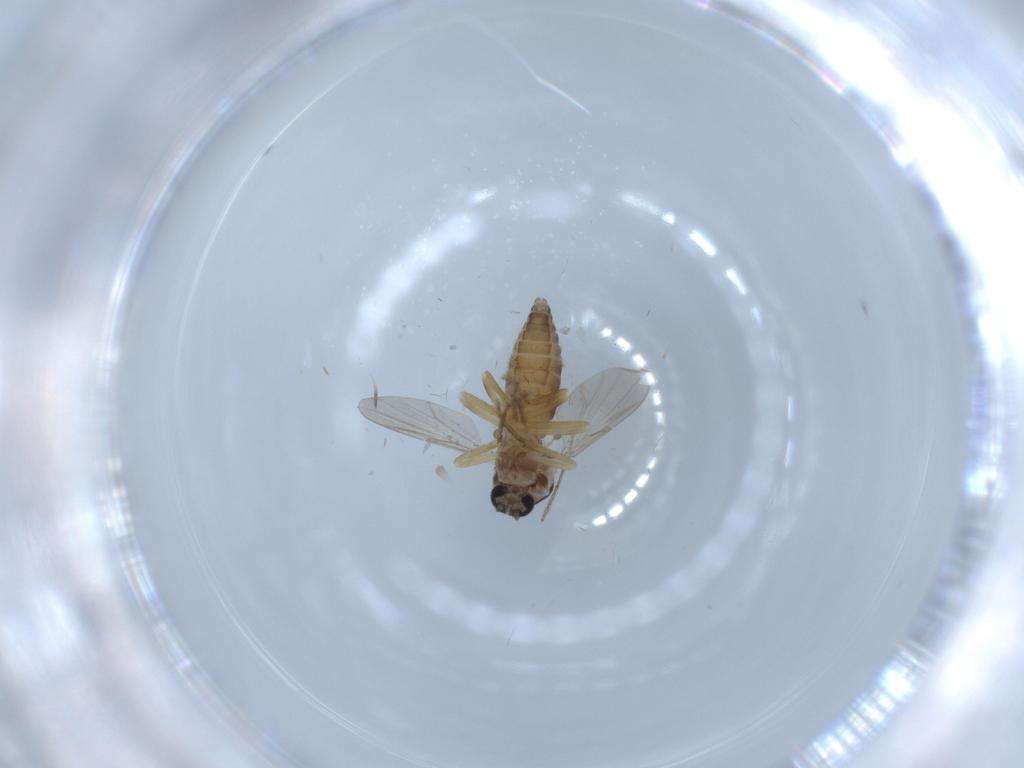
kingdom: Animalia
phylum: Arthropoda
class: Insecta
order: Diptera
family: Ceratopogonidae
